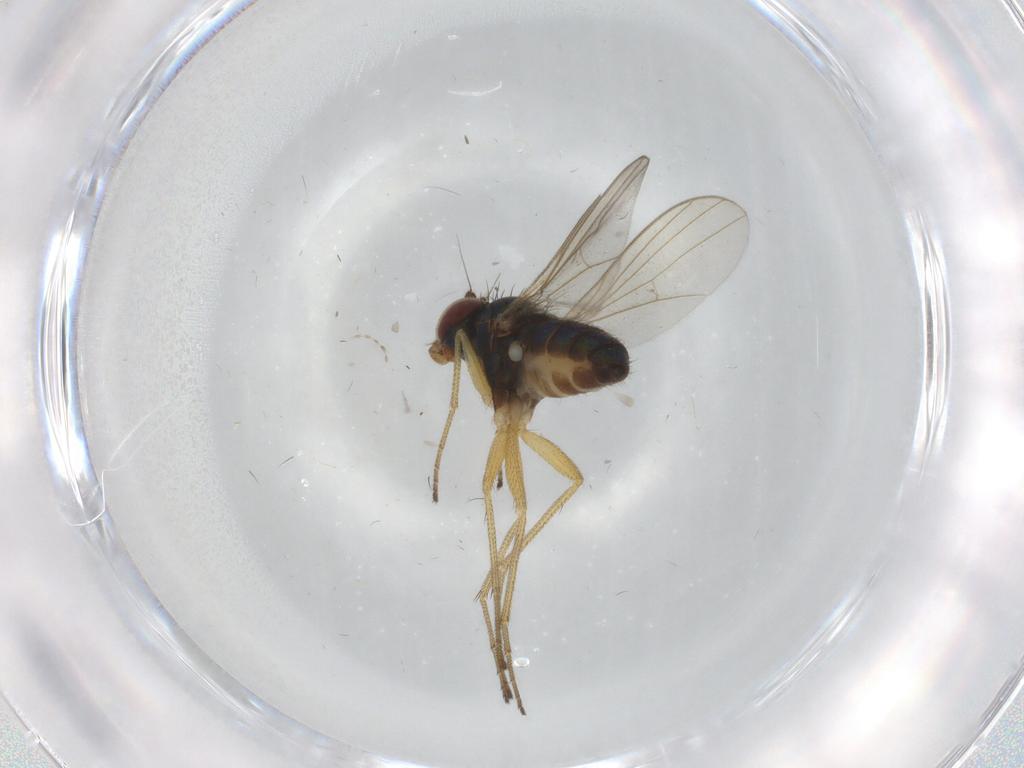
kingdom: Animalia
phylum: Arthropoda
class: Insecta
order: Diptera
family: Dolichopodidae
